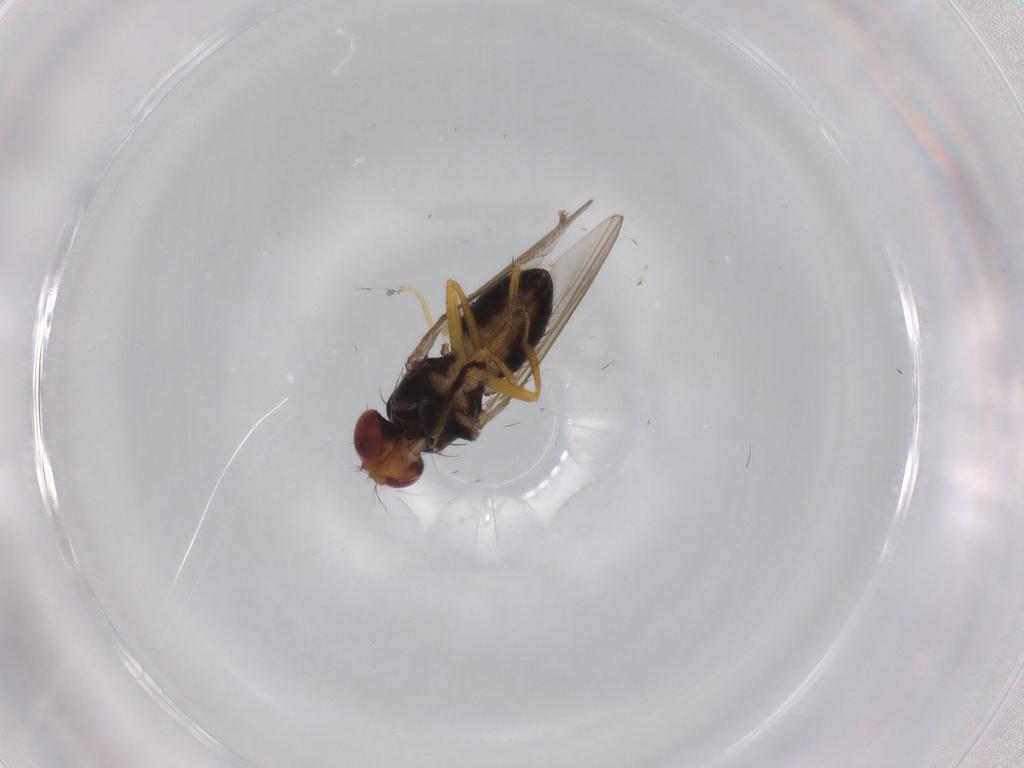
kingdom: Animalia
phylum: Arthropoda
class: Insecta
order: Diptera
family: Drosophilidae
